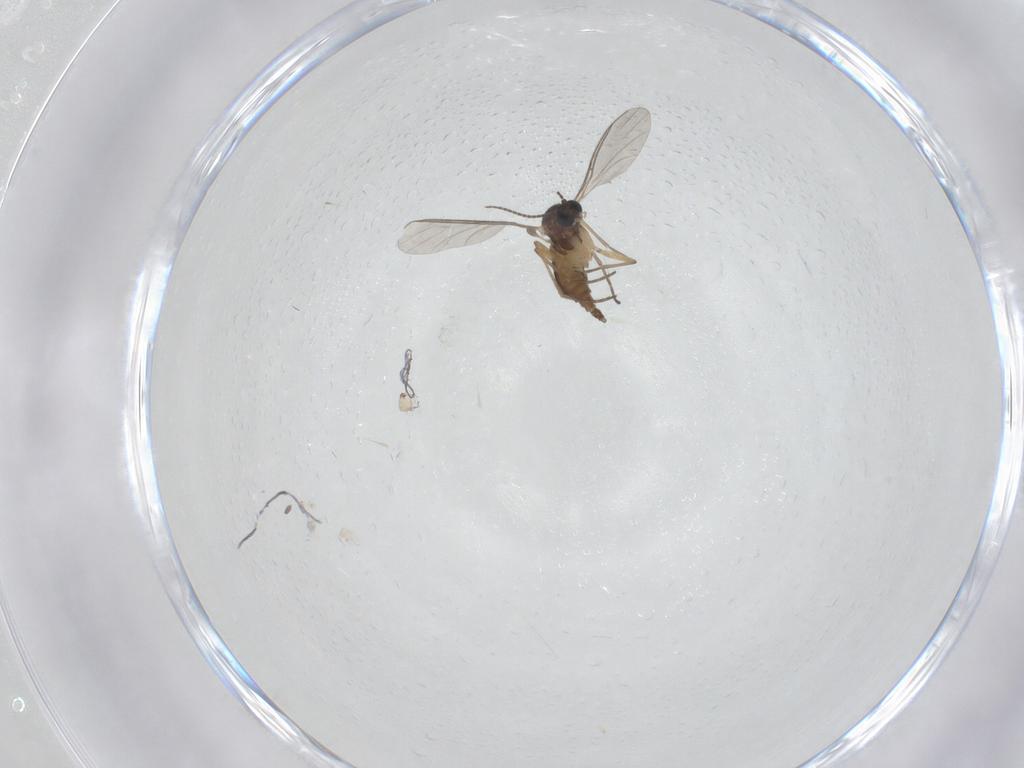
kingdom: Animalia
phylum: Arthropoda
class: Insecta
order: Diptera
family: Sciaridae
